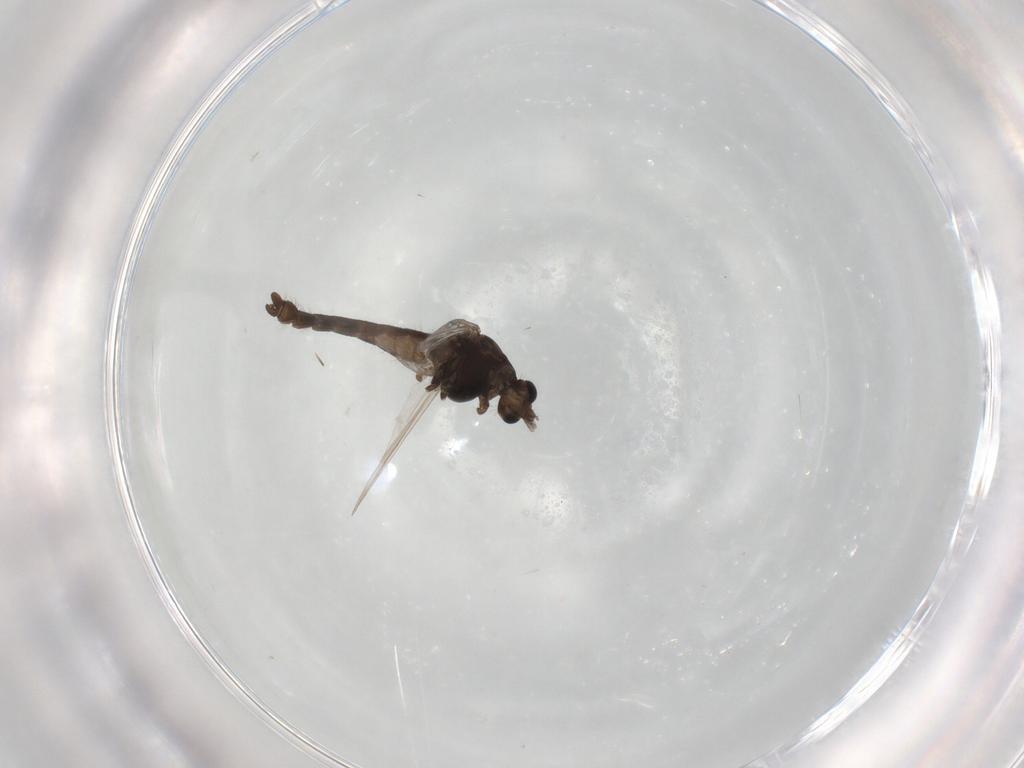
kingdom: Animalia
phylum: Arthropoda
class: Insecta
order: Diptera
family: Chironomidae
